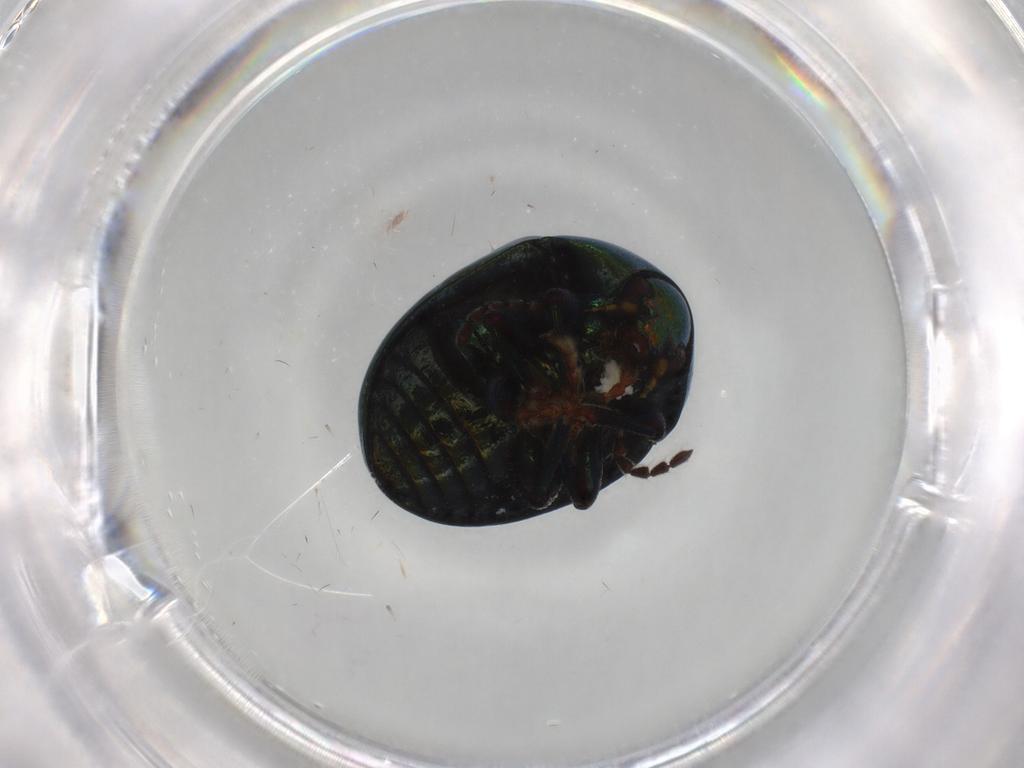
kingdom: Animalia
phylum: Arthropoda
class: Insecta
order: Coleoptera
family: Chrysomelidae
